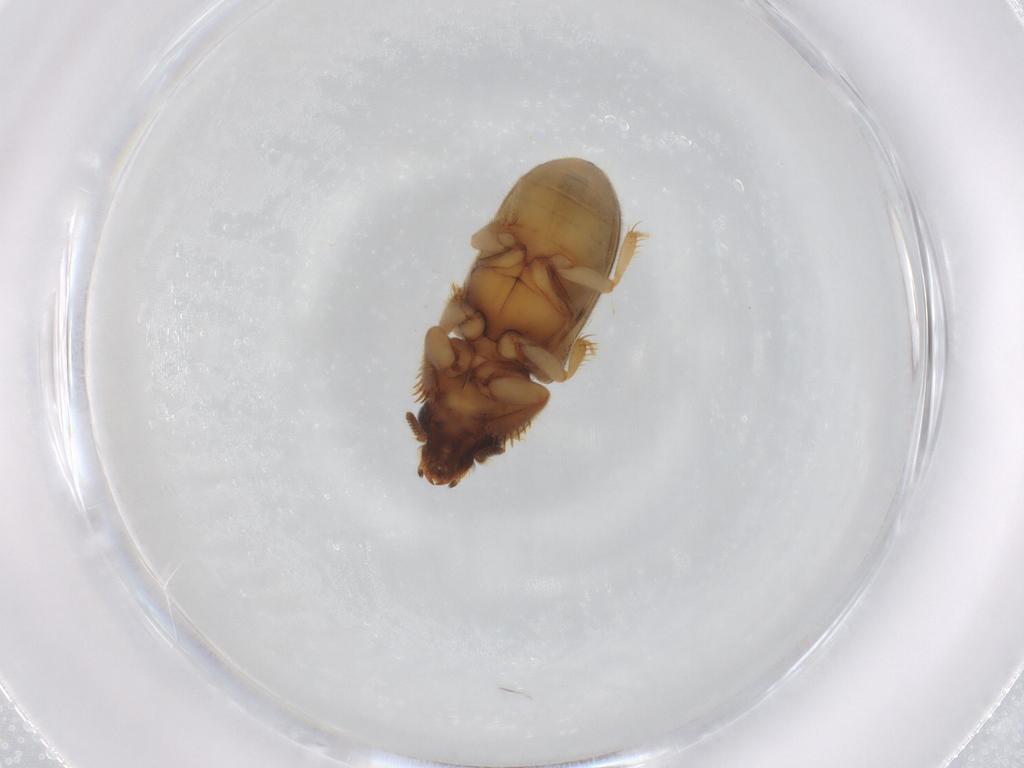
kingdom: Animalia
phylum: Arthropoda
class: Insecta
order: Coleoptera
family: Carabidae
